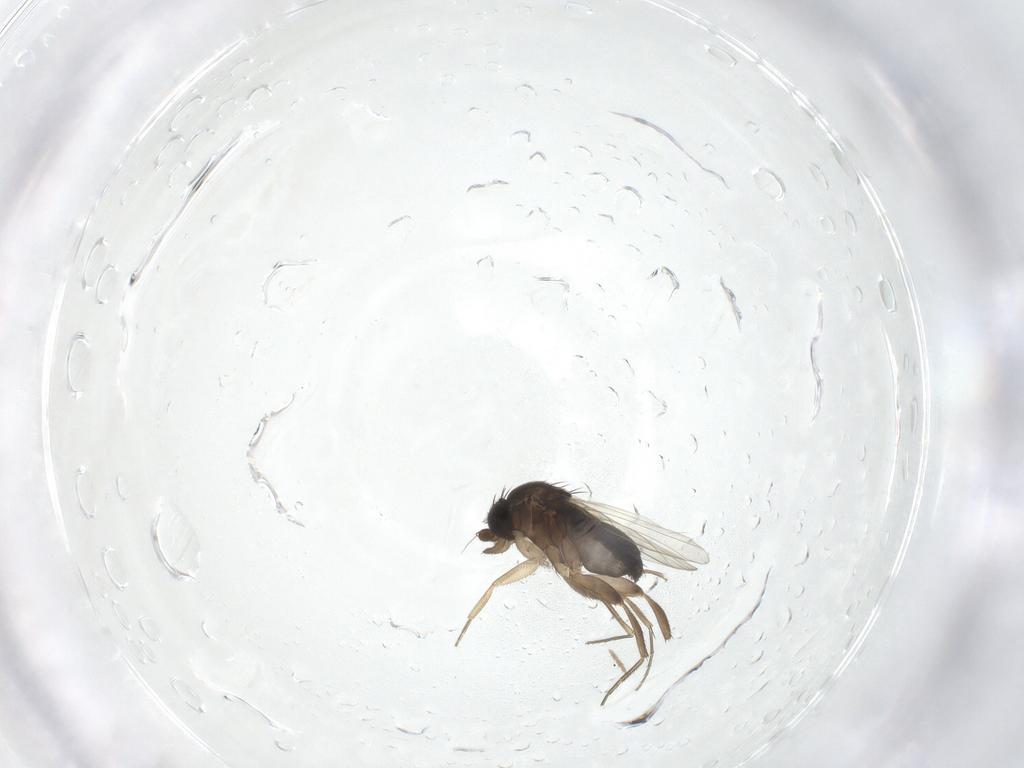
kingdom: Animalia
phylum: Arthropoda
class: Insecta
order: Diptera
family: Chironomidae
